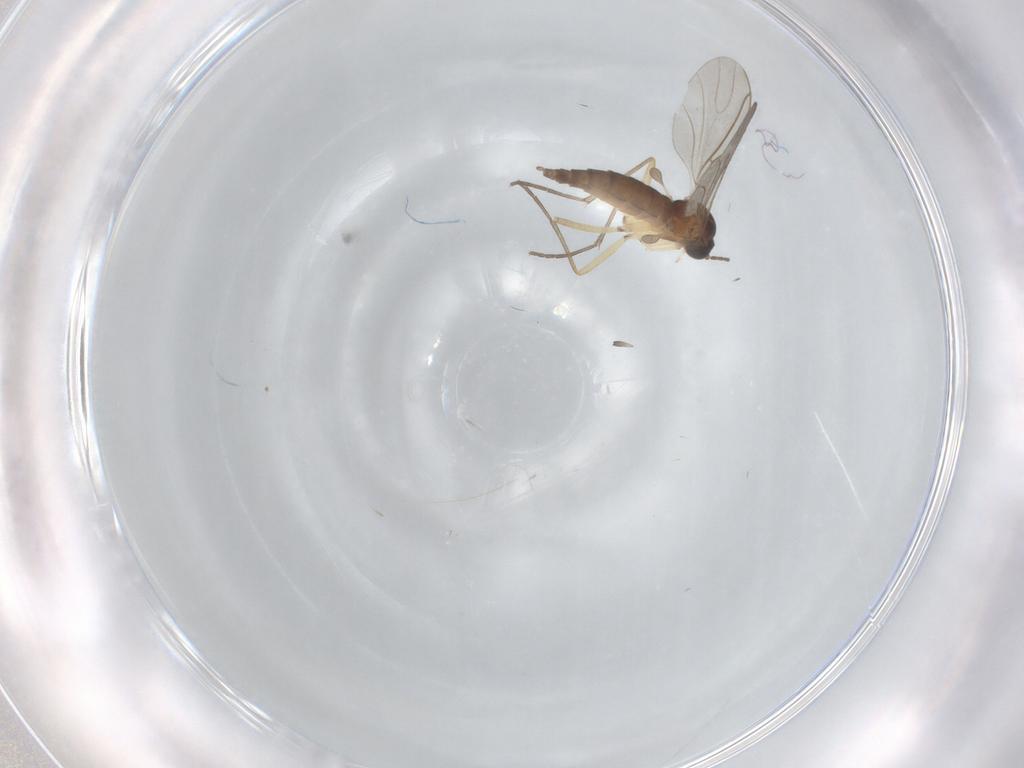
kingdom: Animalia
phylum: Arthropoda
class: Insecta
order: Diptera
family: Sciaridae
